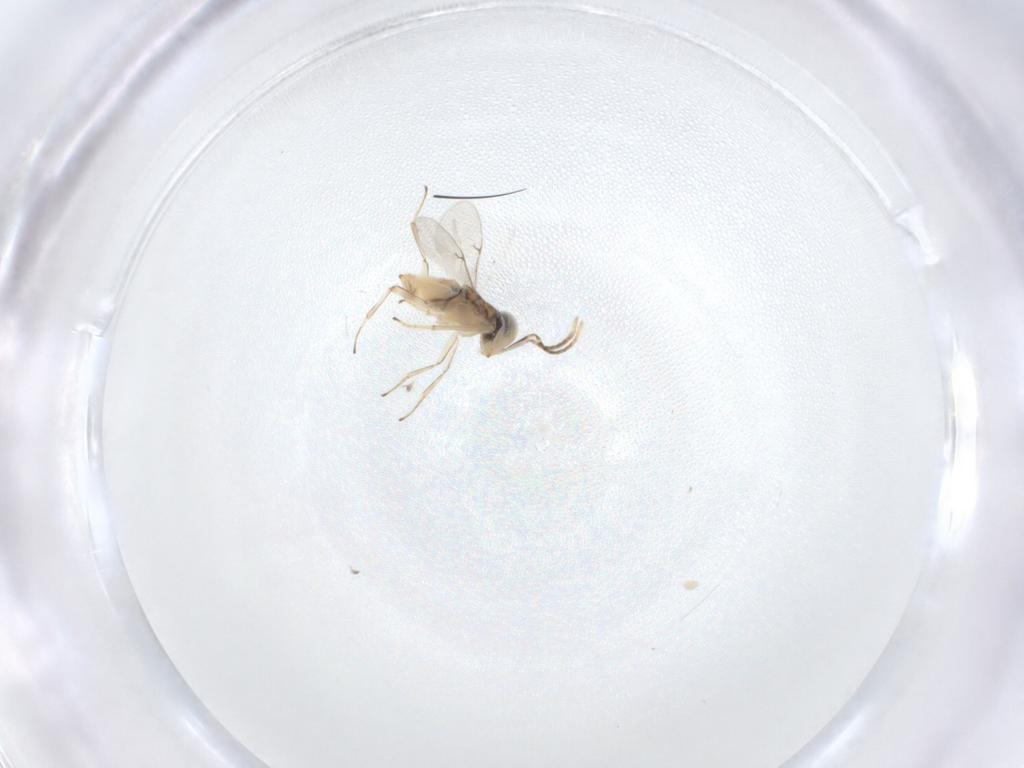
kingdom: Animalia
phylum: Arthropoda
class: Insecta
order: Hymenoptera
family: Encyrtidae
